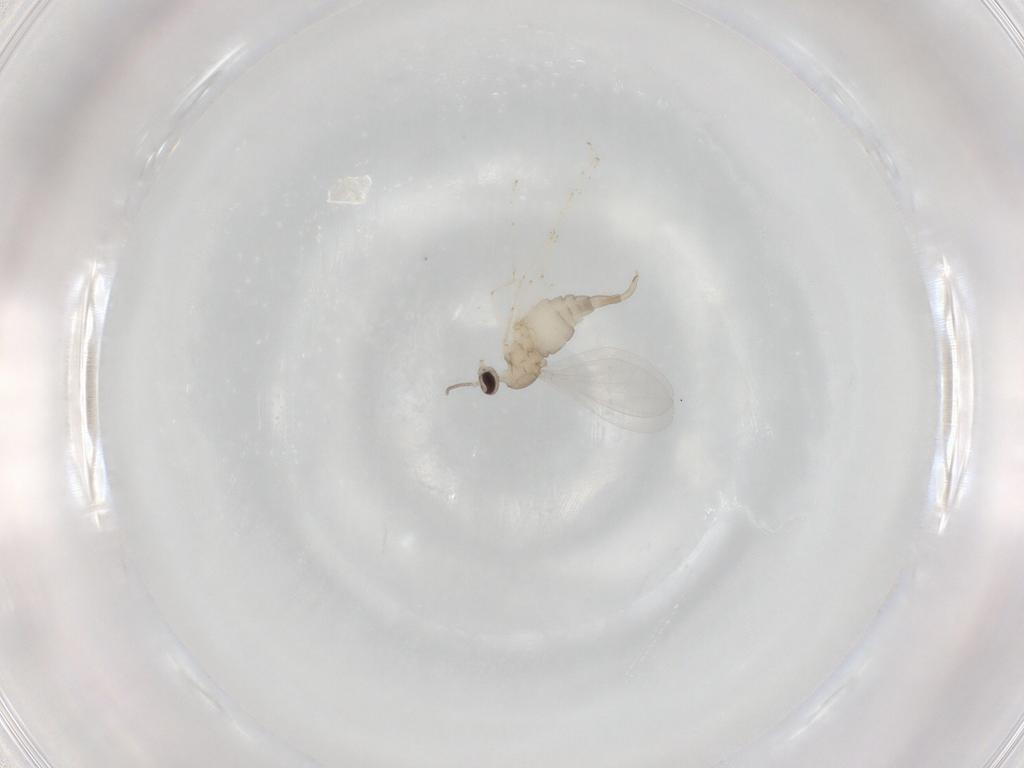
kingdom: Animalia
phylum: Arthropoda
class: Insecta
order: Diptera
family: Cecidomyiidae
